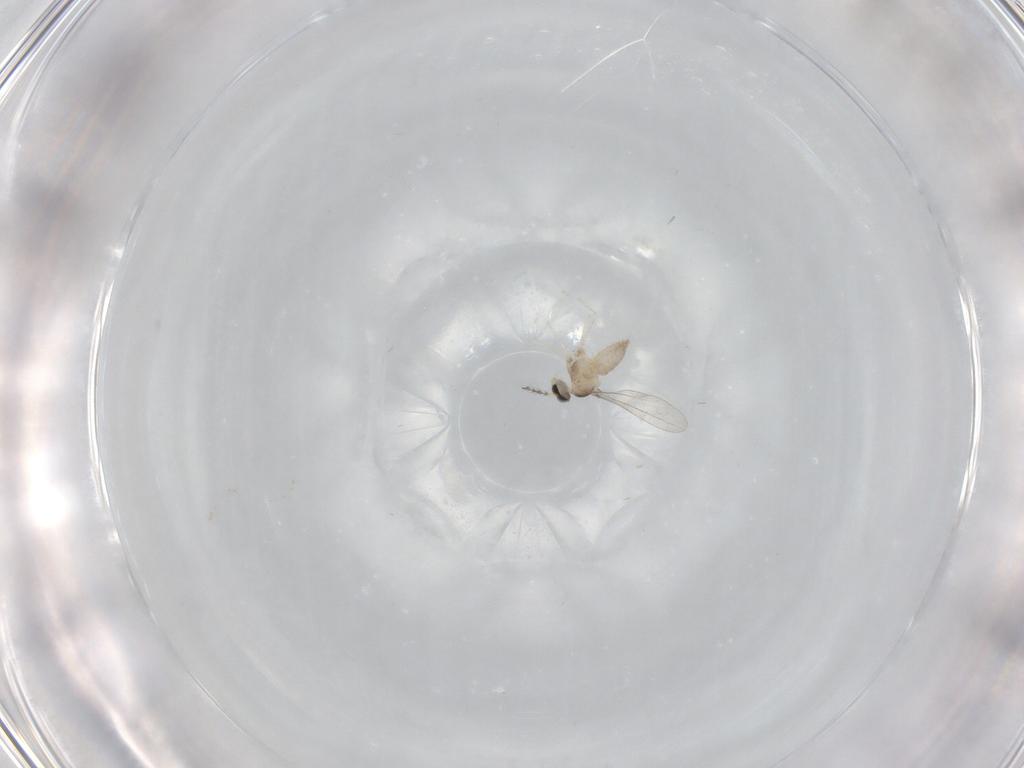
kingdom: Animalia
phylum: Arthropoda
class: Insecta
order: Diptera
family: Cecidomyiidae
